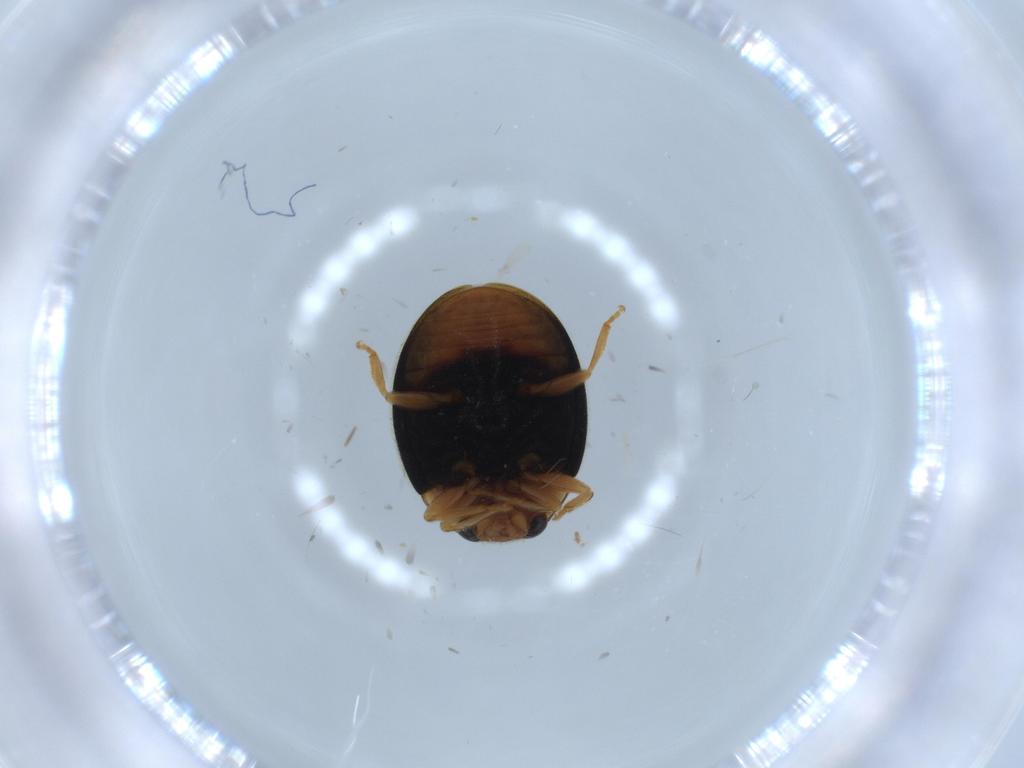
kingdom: Animalia
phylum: Arthropoda
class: Insecta
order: Coleoptera
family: Coccinellidae
